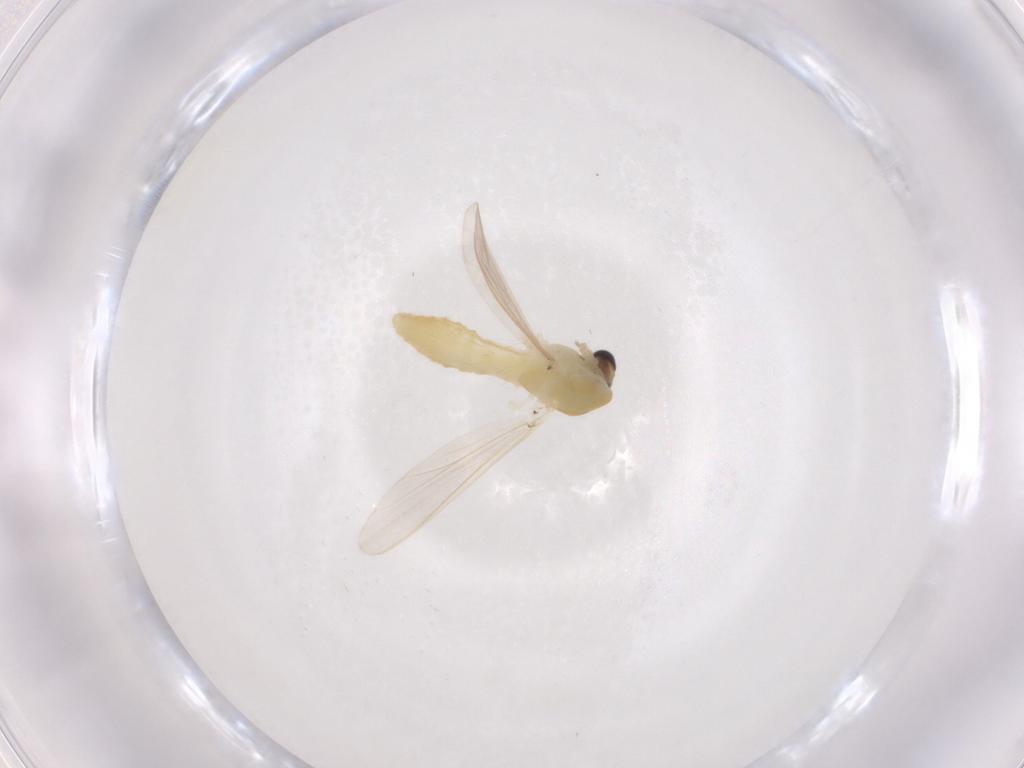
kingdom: Animalia
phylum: Arthropoda
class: Insecta
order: Diptera
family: Chironomidae
